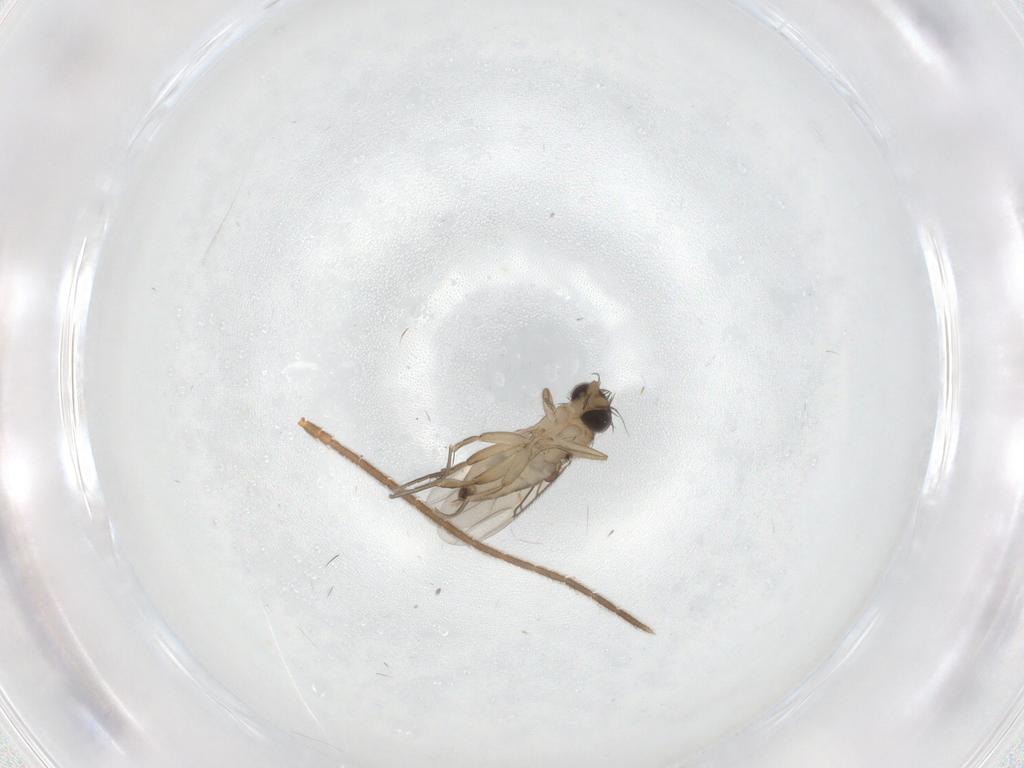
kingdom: Animalia
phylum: Arthropoda
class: Insecta
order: Diptera
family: Phoridae
